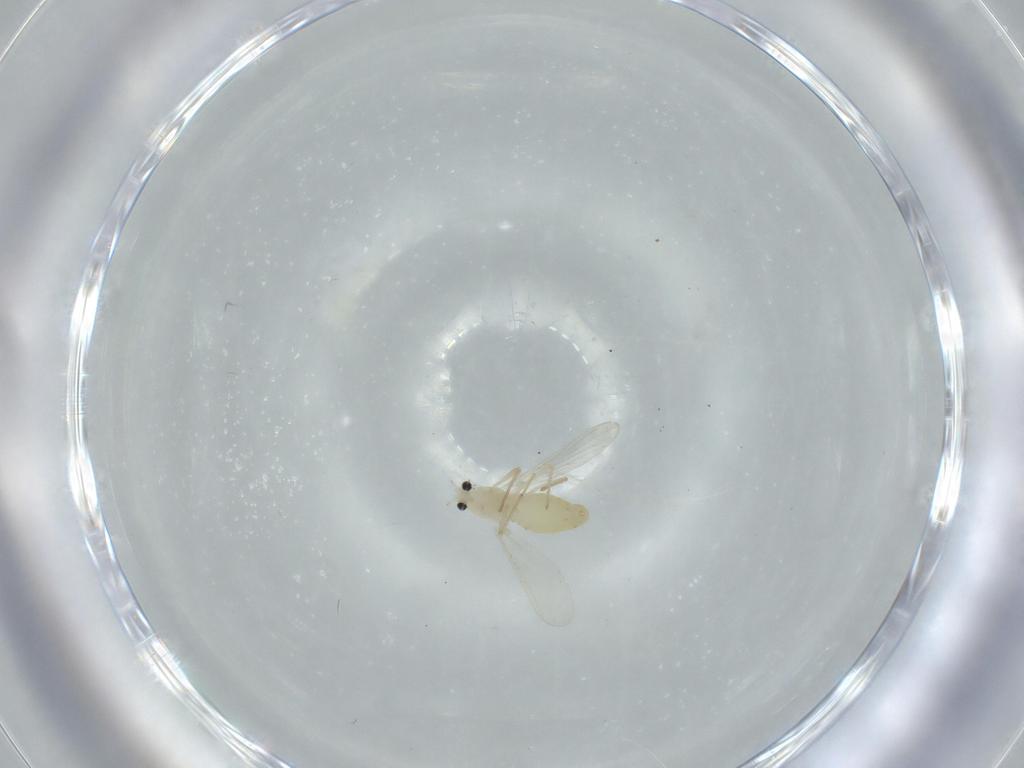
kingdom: Animalia
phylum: Arthropoda
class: Insecta
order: Diptera
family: Chironomidae
